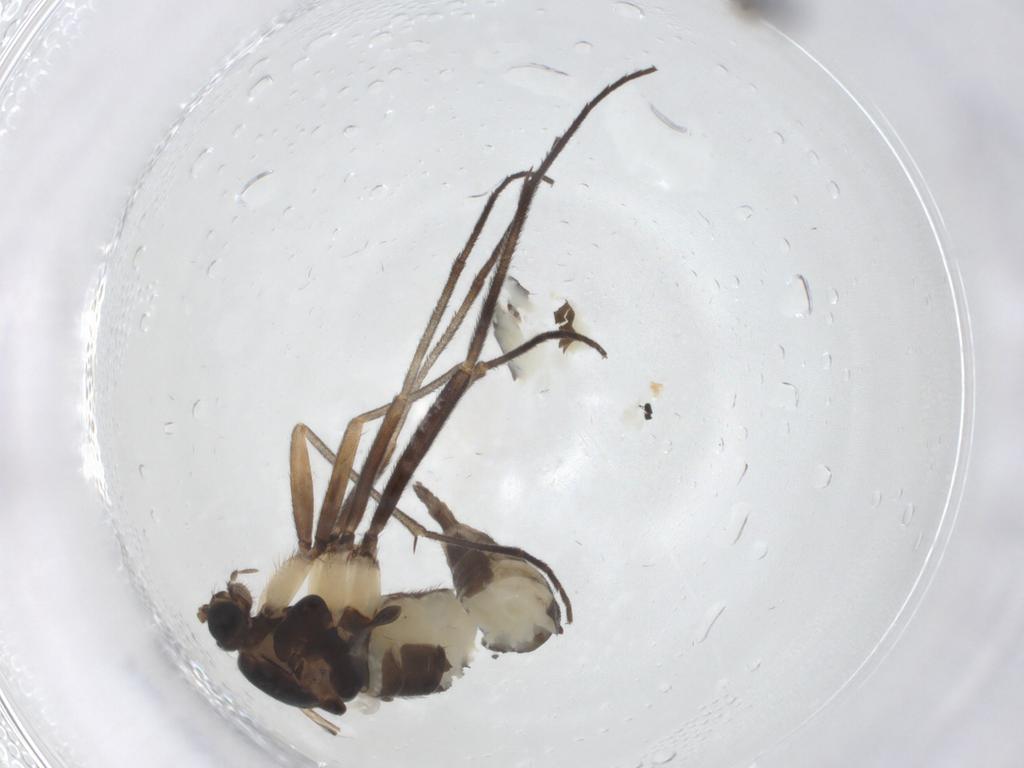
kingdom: Animalia
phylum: Arthropoda
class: Insecta
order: Diptera
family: Sciaridae
